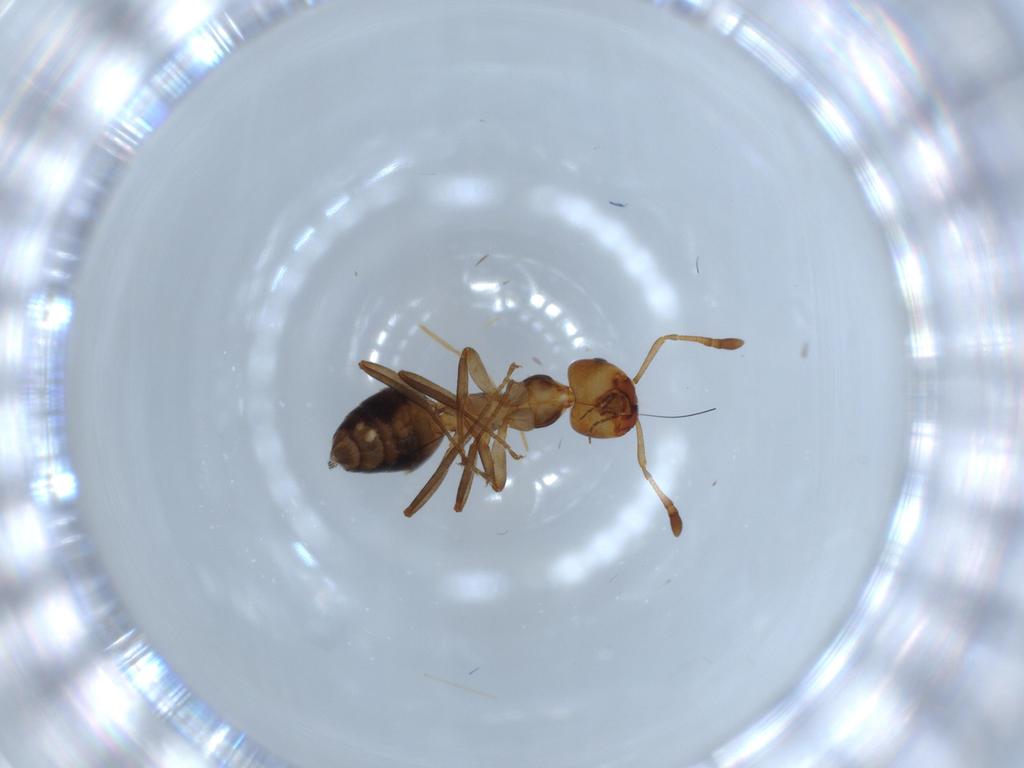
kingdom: Animalia
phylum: Arthropoda
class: Insecta
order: Hymenoptera
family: Formicidae
